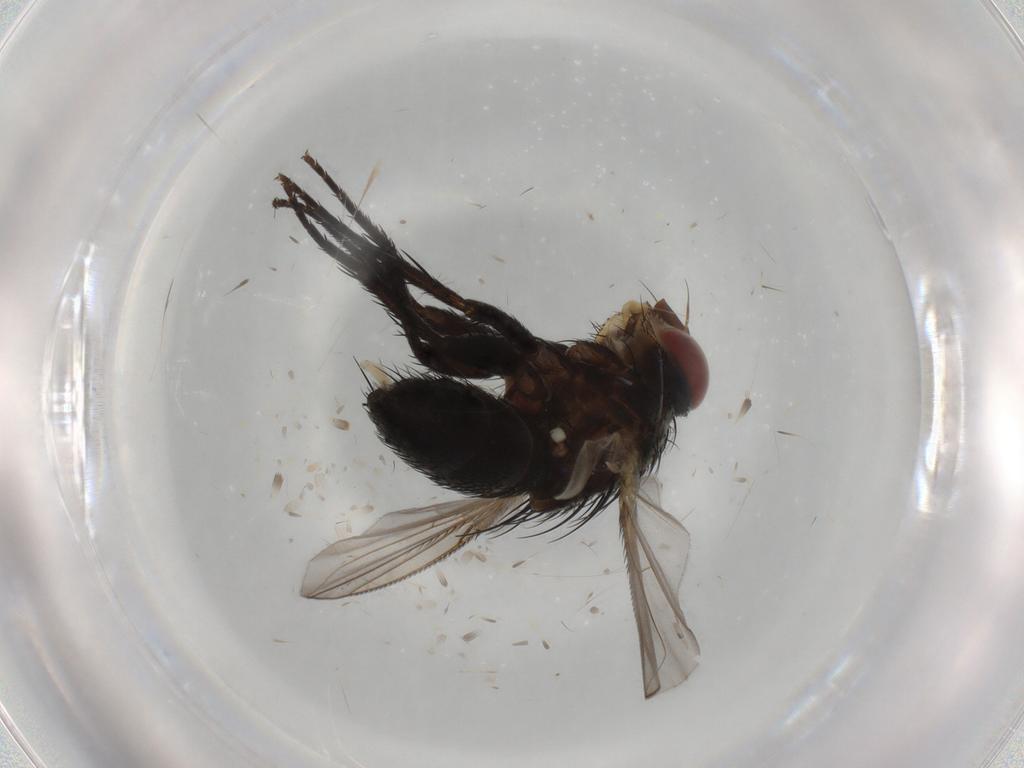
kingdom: Animalia
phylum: Arthropoda
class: Insecta
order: Diptera
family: Tachinidae
